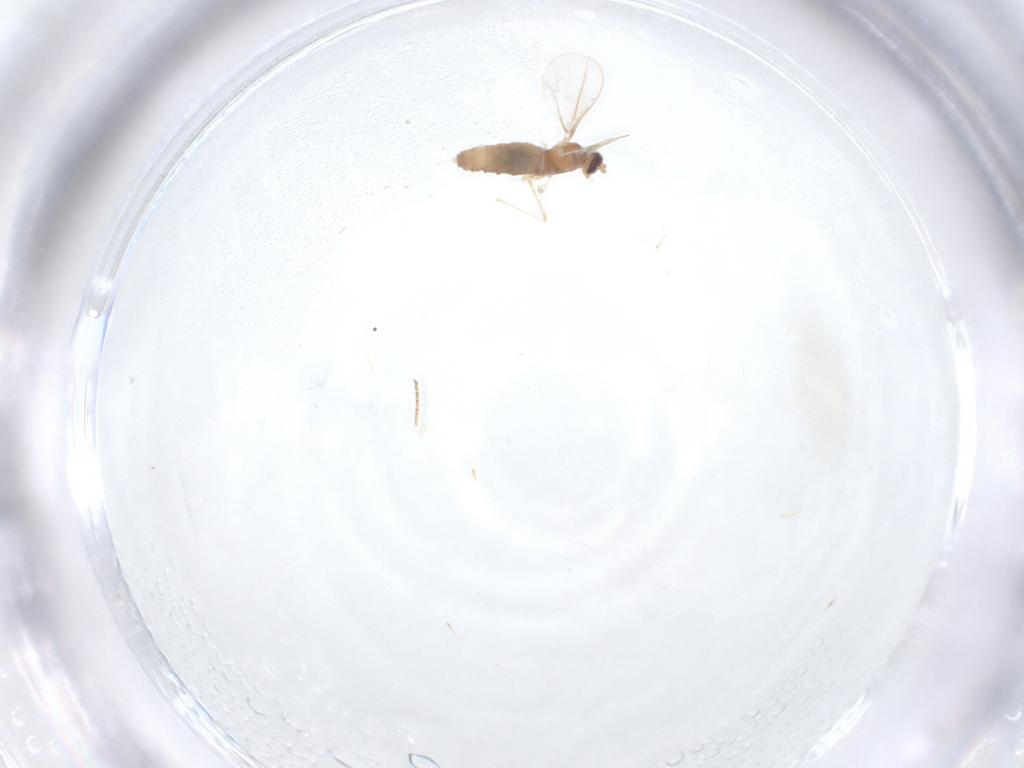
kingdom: Animalia
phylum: Arthropoda
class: Insecta
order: Diptera
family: Cecidomyiidae
